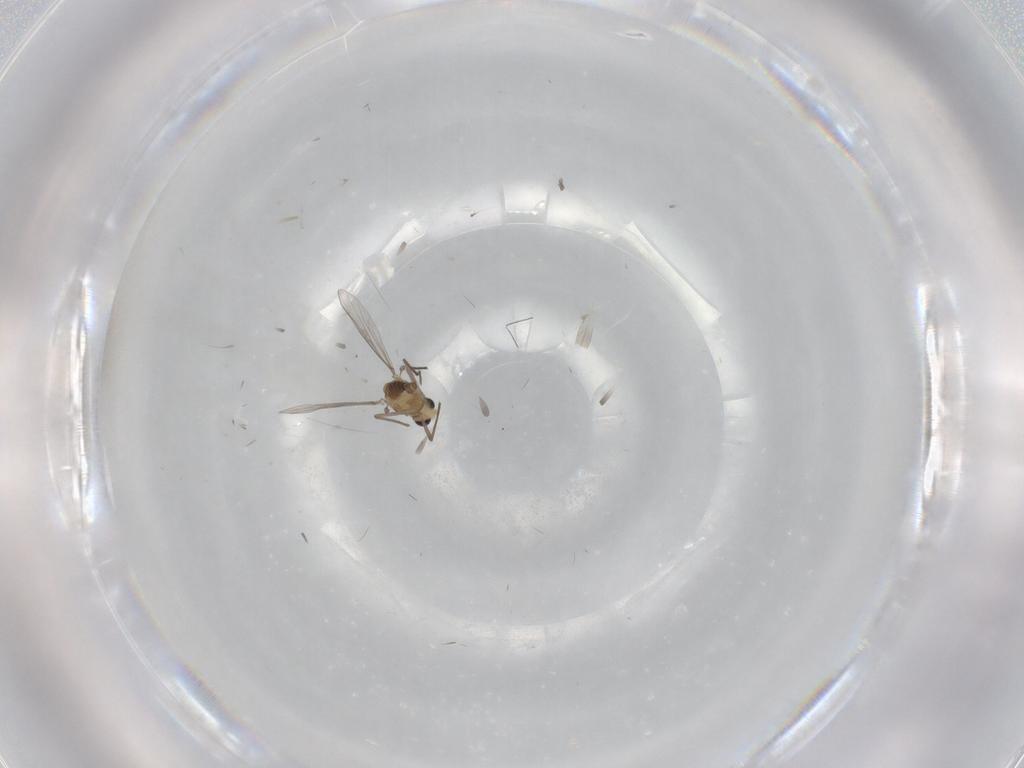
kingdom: Animalia
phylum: Arthropoda
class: Insecta
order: Diptera
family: Chironomidae
